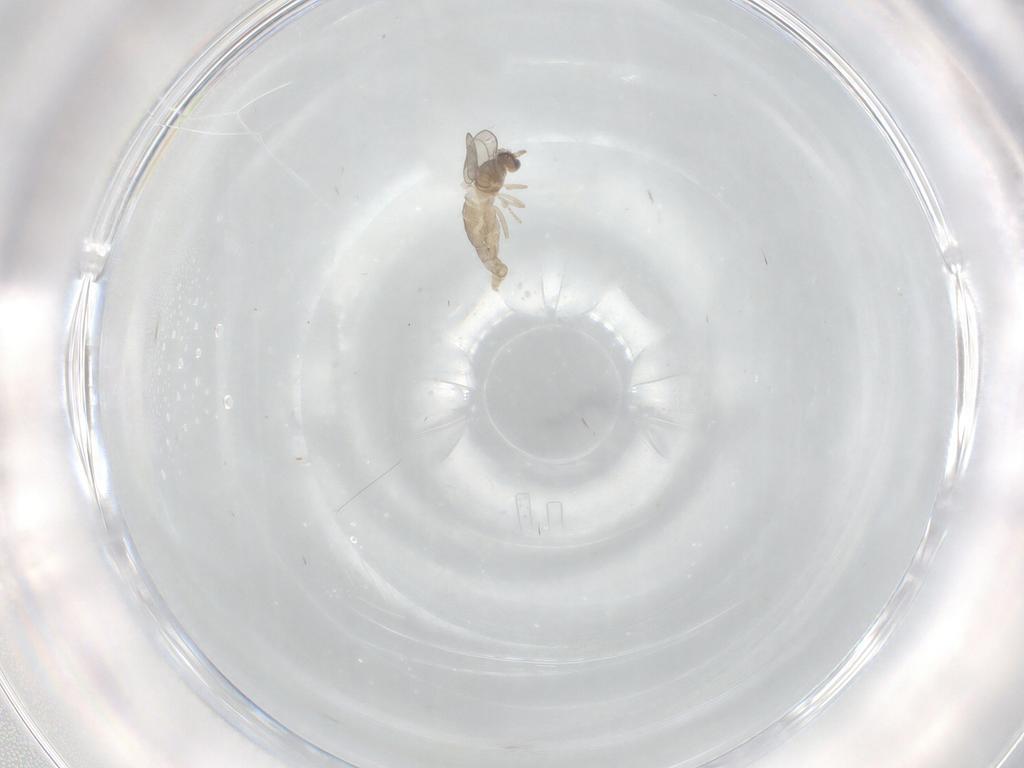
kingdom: Animalia
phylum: Arthropoda
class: Insecta
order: Diptera
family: Cecidomyiidae
